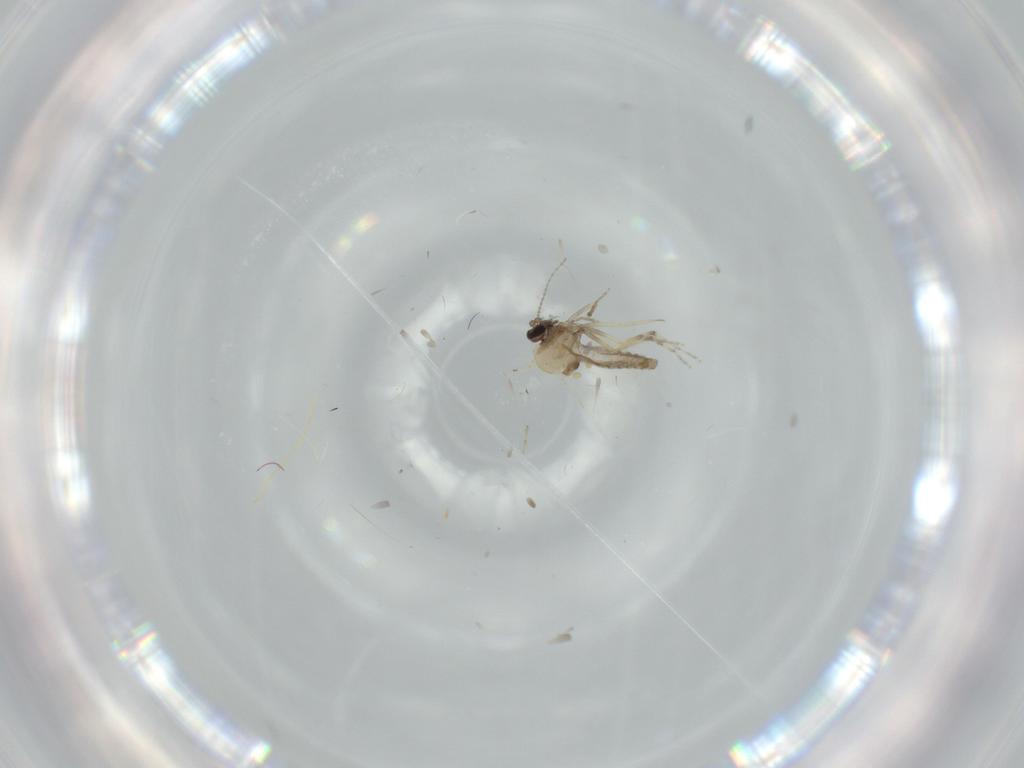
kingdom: Animalia
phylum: Arthropoda
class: Insecta
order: Diptera
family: Ceratopogonidae
